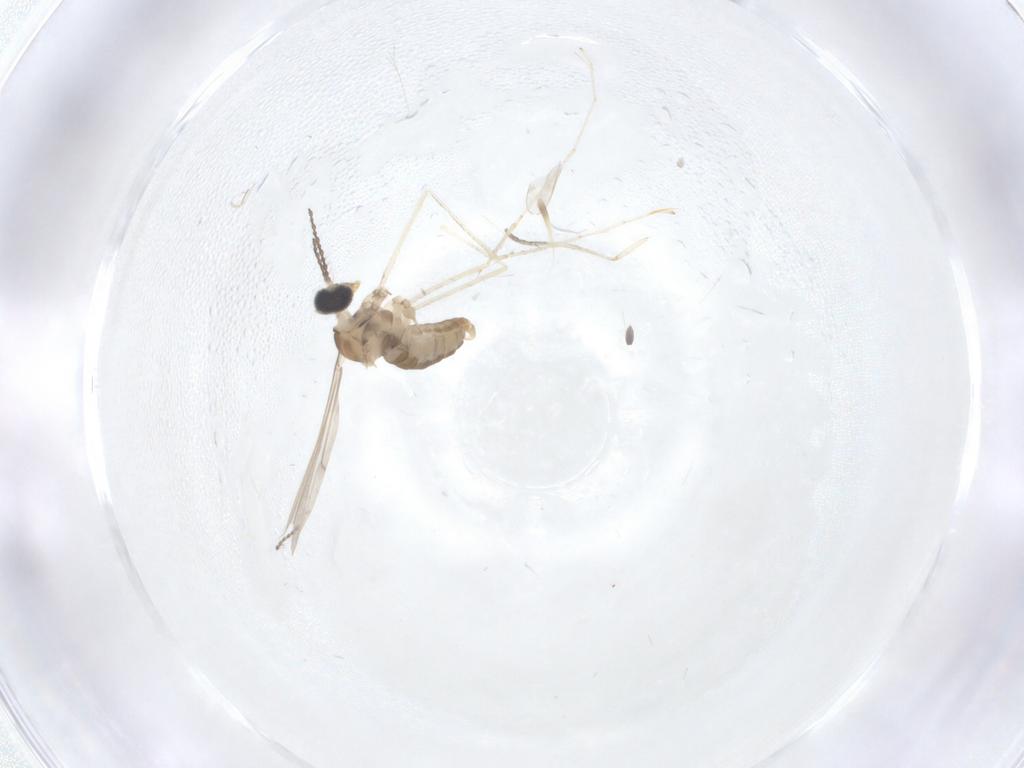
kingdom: Animalia
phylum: Arthropoda
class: Insecta
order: Diptera
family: Cecidomyiidae
